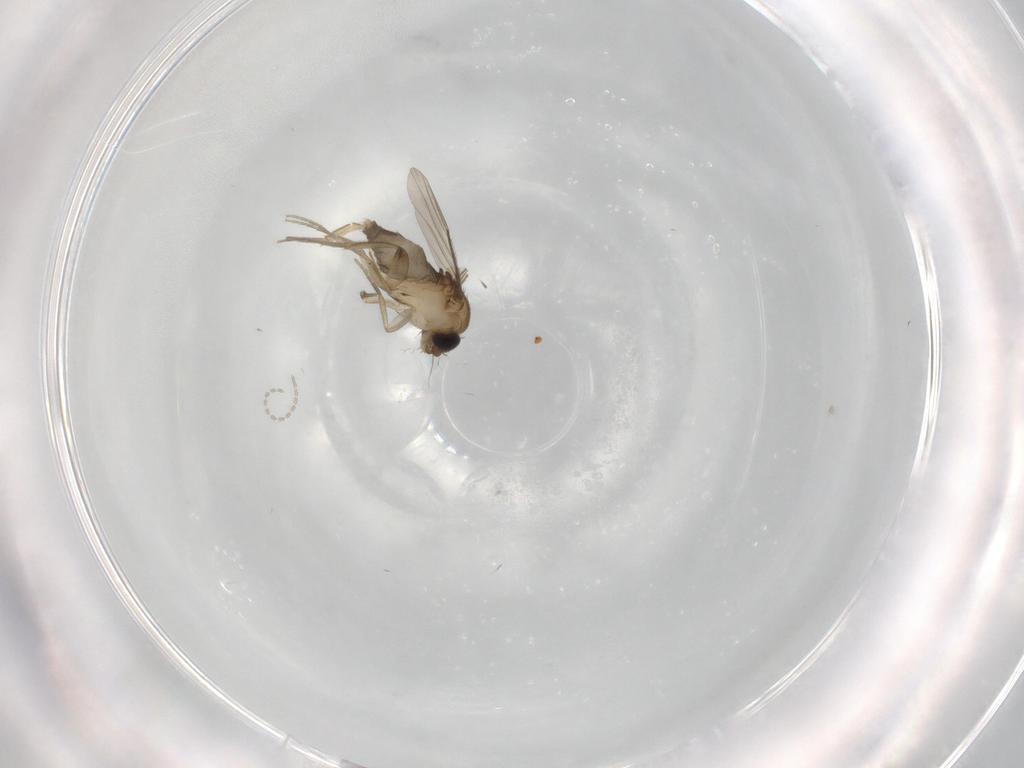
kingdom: Animalia
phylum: Arthropoda
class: Insecta
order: Diptera
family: Phoridae
